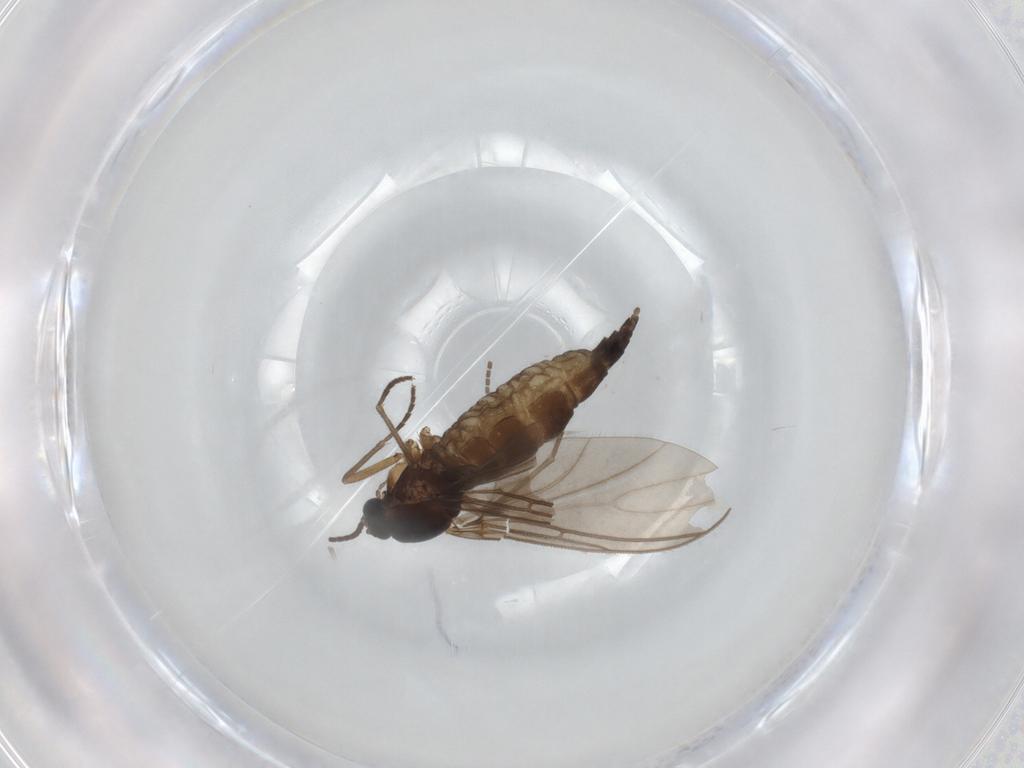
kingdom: Animalia
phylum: Arthropoda
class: Insecta
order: Diptera
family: Sciaridae
